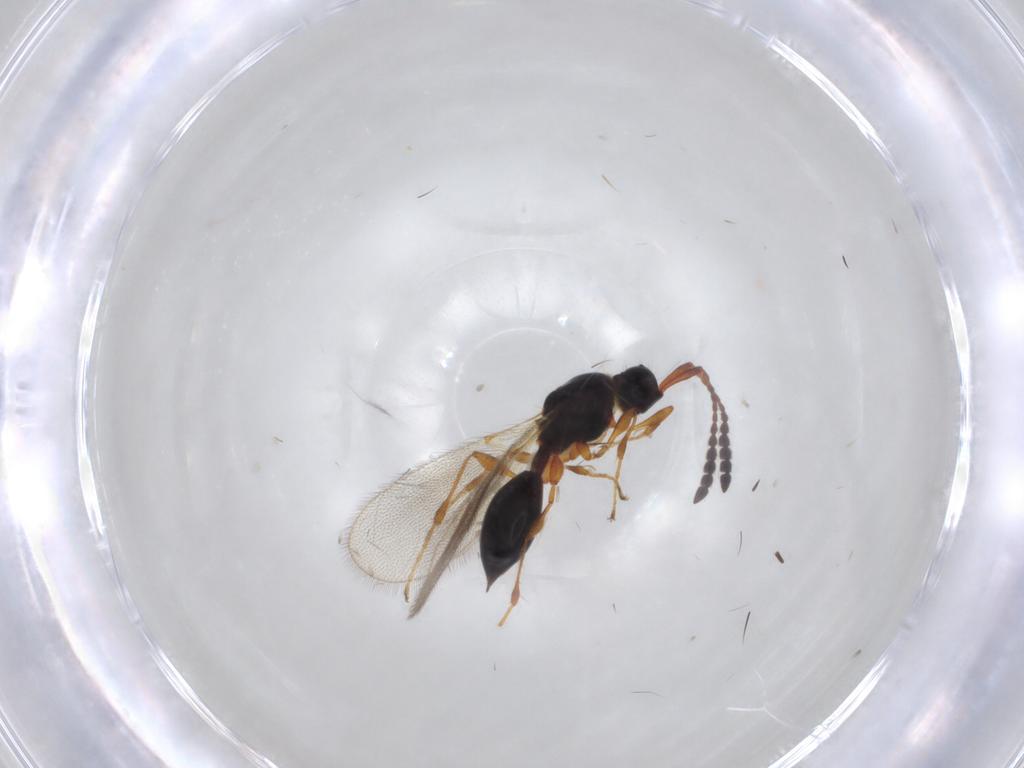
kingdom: Animalia
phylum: Arthropoda
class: Insecta
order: Hymenoptera
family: Braconidae
